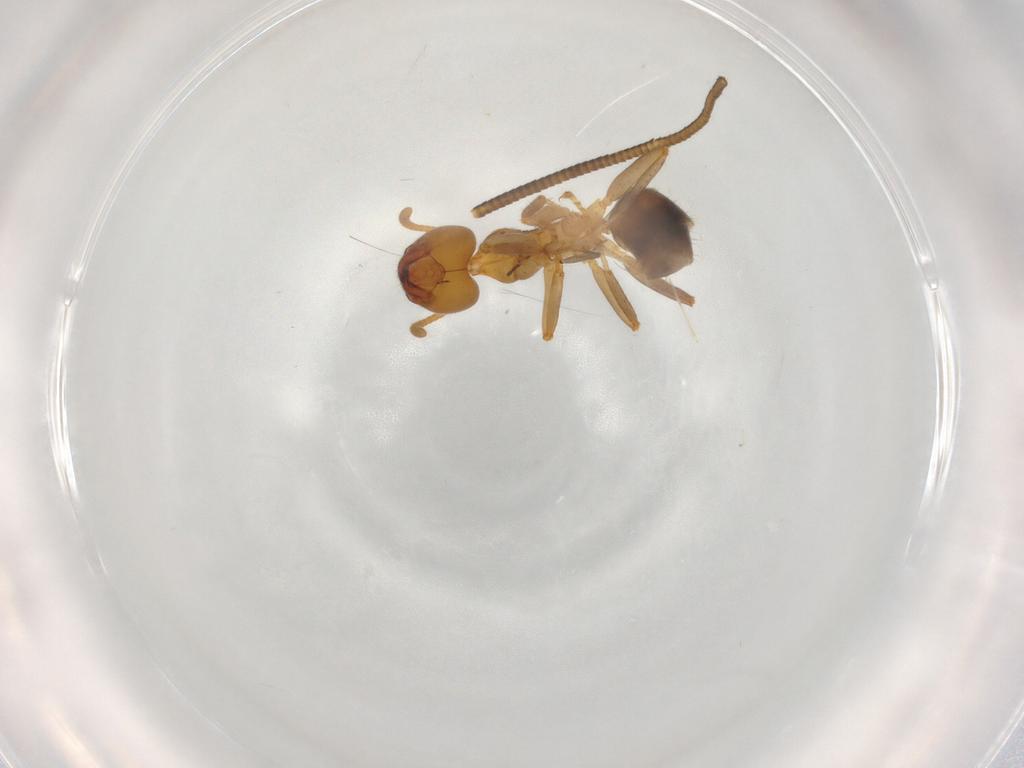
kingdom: Animalia
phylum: Arthropoda
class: Insecta
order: Hymenoptera
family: Formicidae
